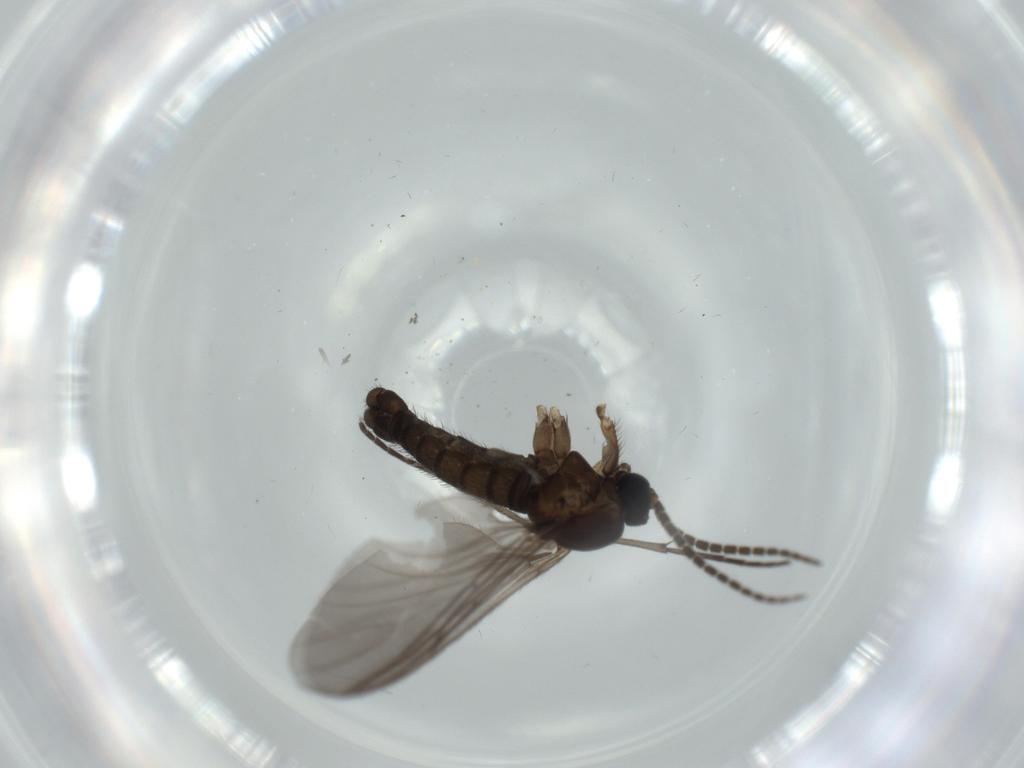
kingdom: Animalia
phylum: Arthropoda
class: Insecta
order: Diptera
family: Sciaridae
